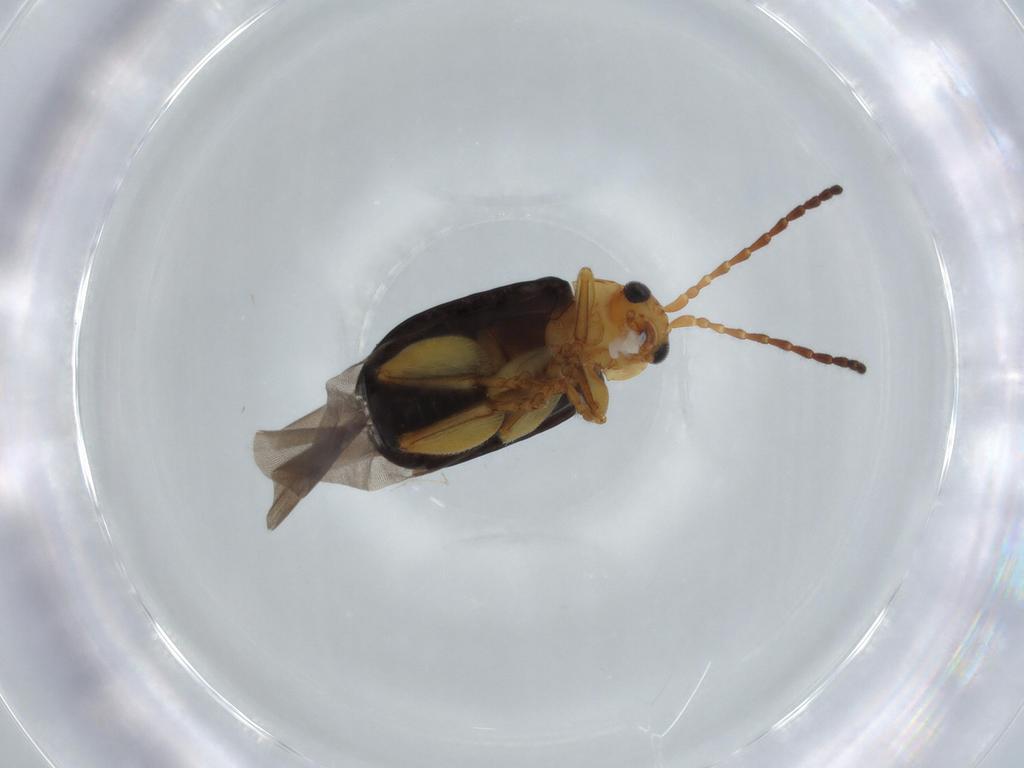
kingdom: Animalia
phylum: Arthropoda
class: Insecta
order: Coleoptera
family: Chrysomelidae
